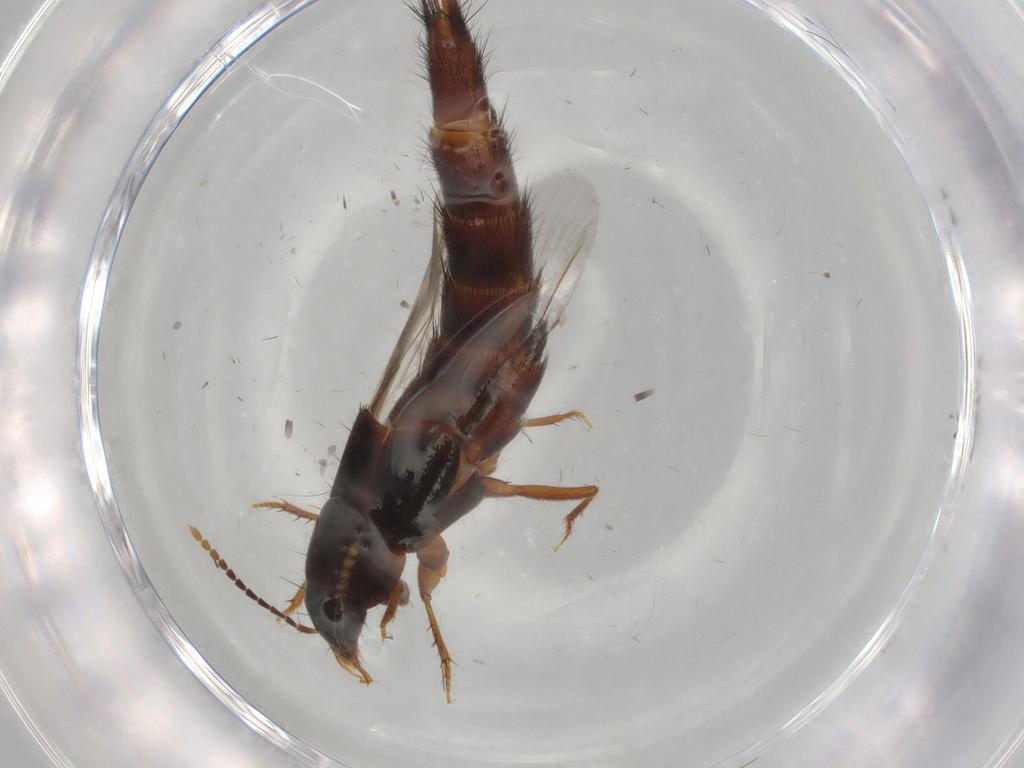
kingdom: Animalia
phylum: Arthropoda
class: Insecta
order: Coleoptera
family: Staphylinidae
